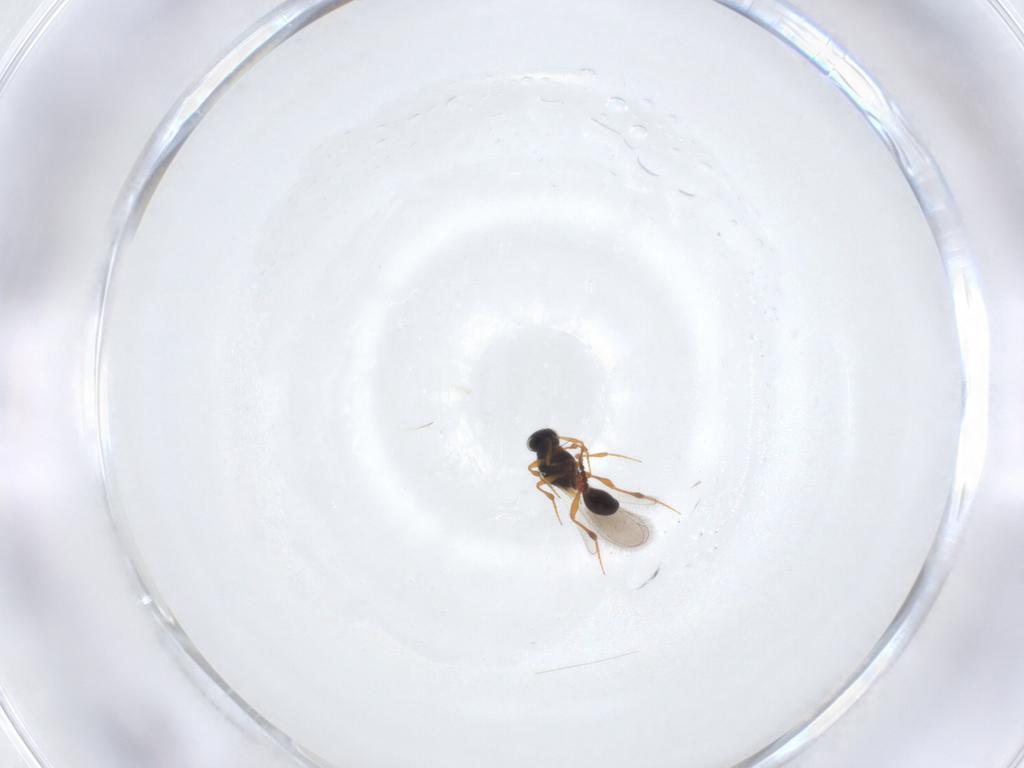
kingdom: Animalia
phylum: Arthropoda
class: Insecta
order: Hymenoptera
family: Platygastridae
